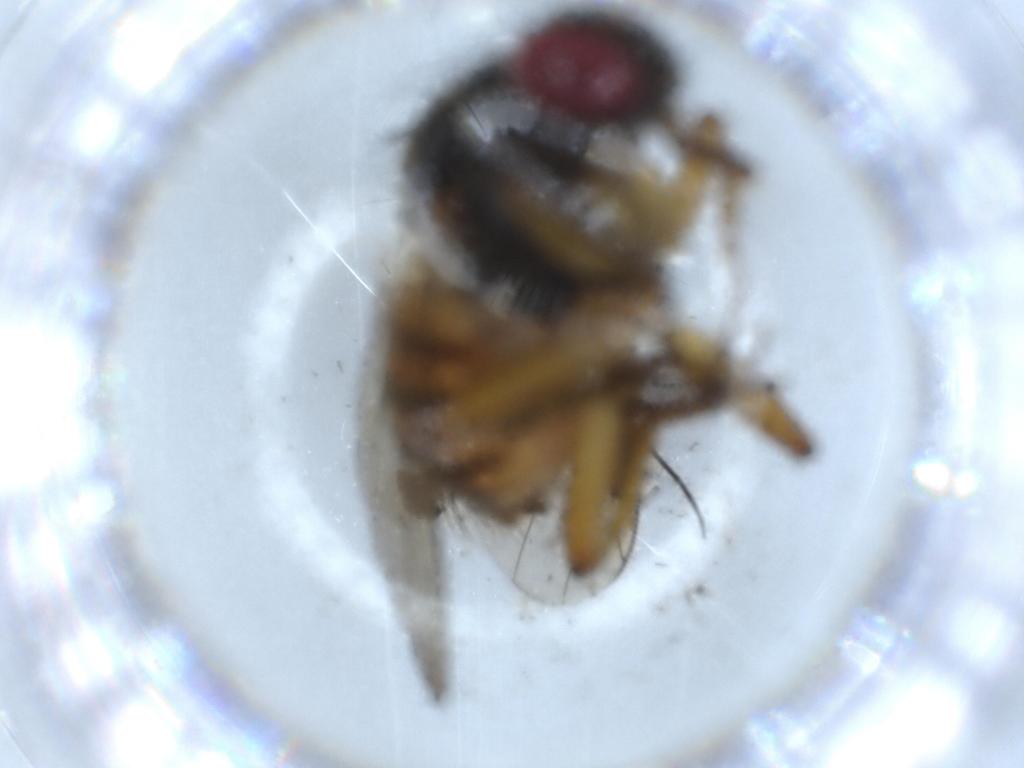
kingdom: Animalia
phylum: Arthropoda
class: Insecta
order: Diptera
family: Muscidae
